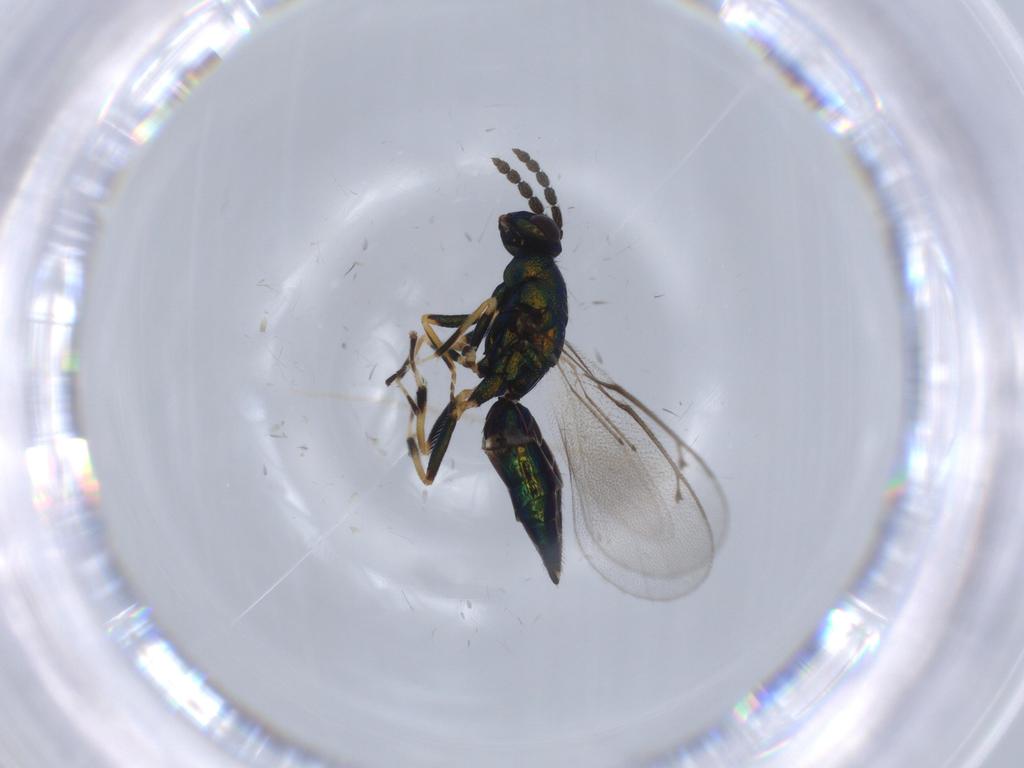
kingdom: Animalia
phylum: Arthropoda
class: Insecta
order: Hymenoptera
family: Eulophidae
